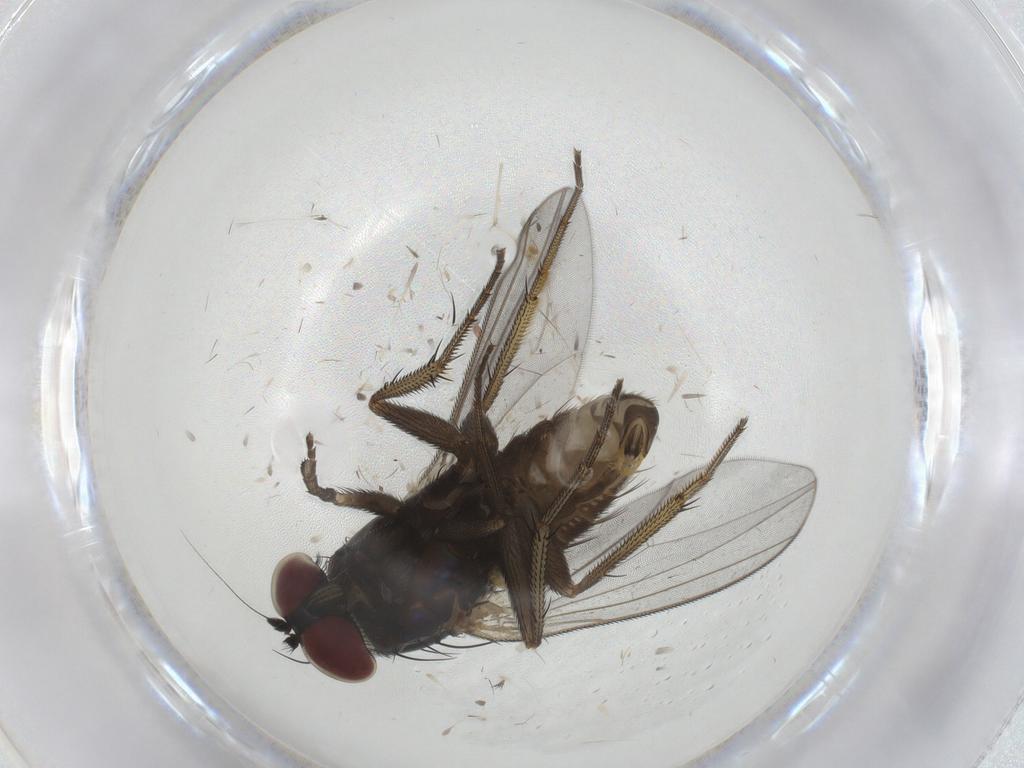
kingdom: Animalia
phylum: Arthropoda
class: Insecta
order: Diptera
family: Dolichopodidae
